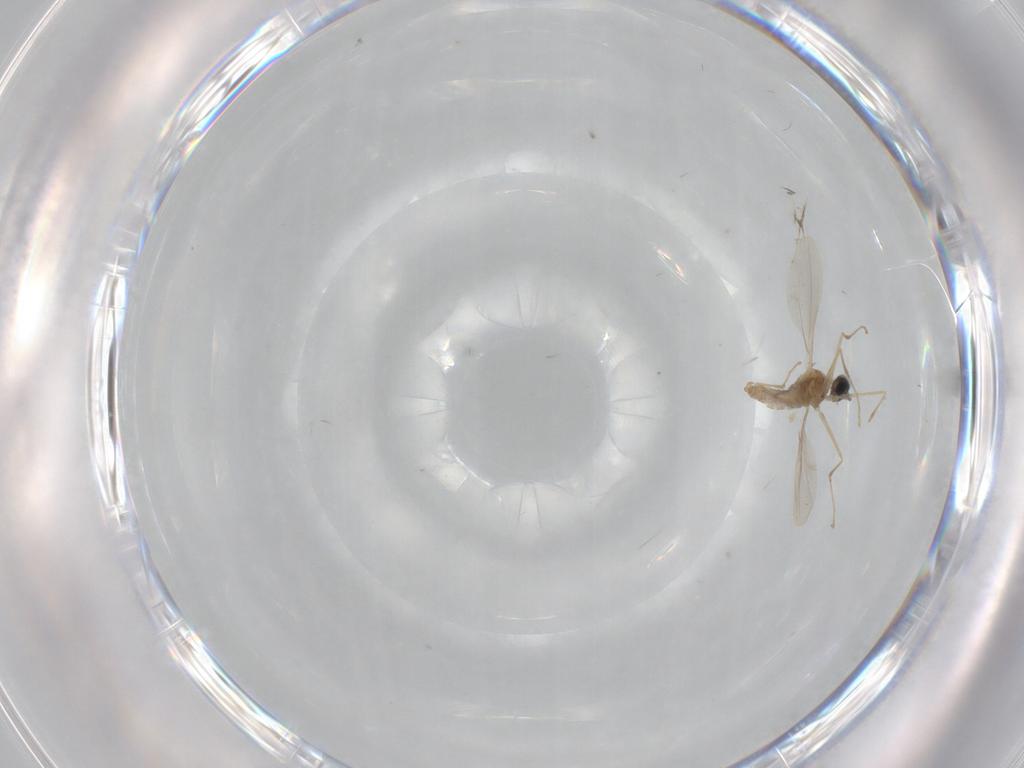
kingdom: Animalia
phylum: Arthropoda
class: Insecta
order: Diptera
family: Cecidomyiidae
